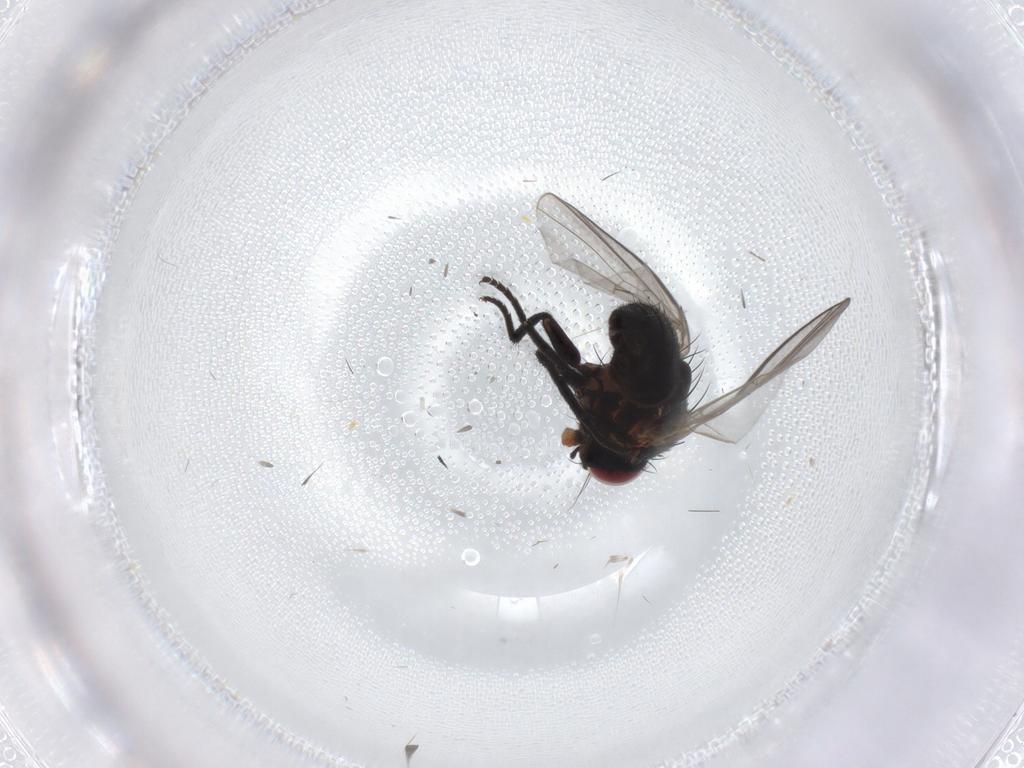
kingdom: Animalia
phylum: Arthropoda
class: Insecta
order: Diptera
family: Agromyzidae
